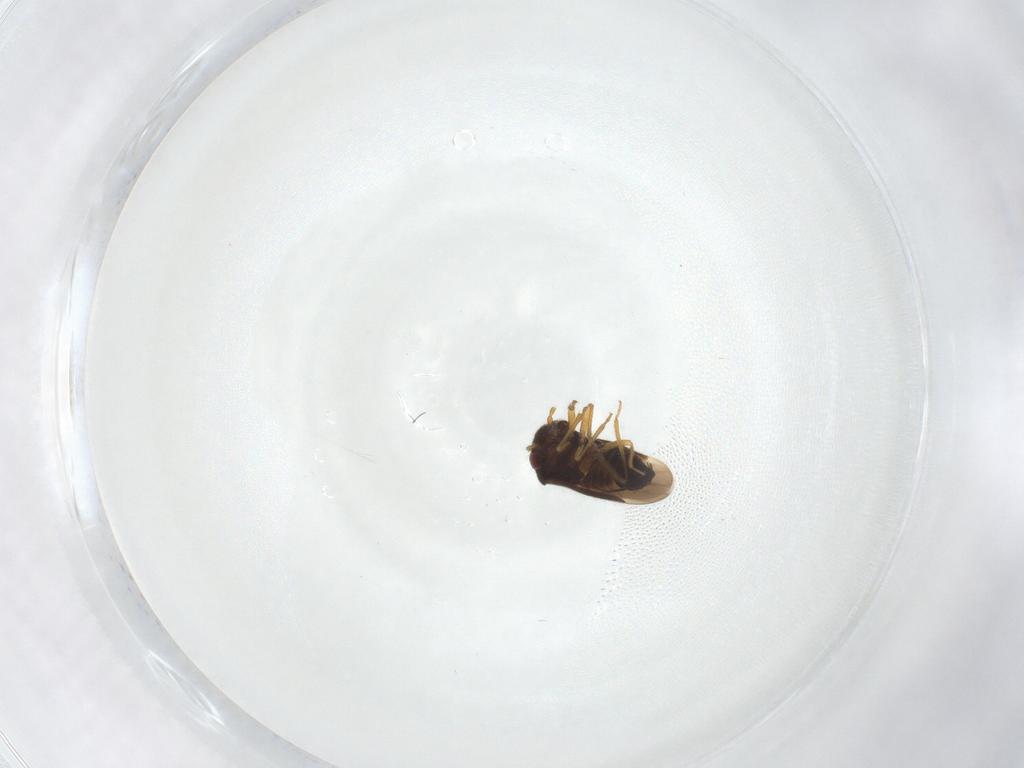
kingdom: Animalia
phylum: Arthropoda
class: Insecta
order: Hemiptera
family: Schizopteridae
